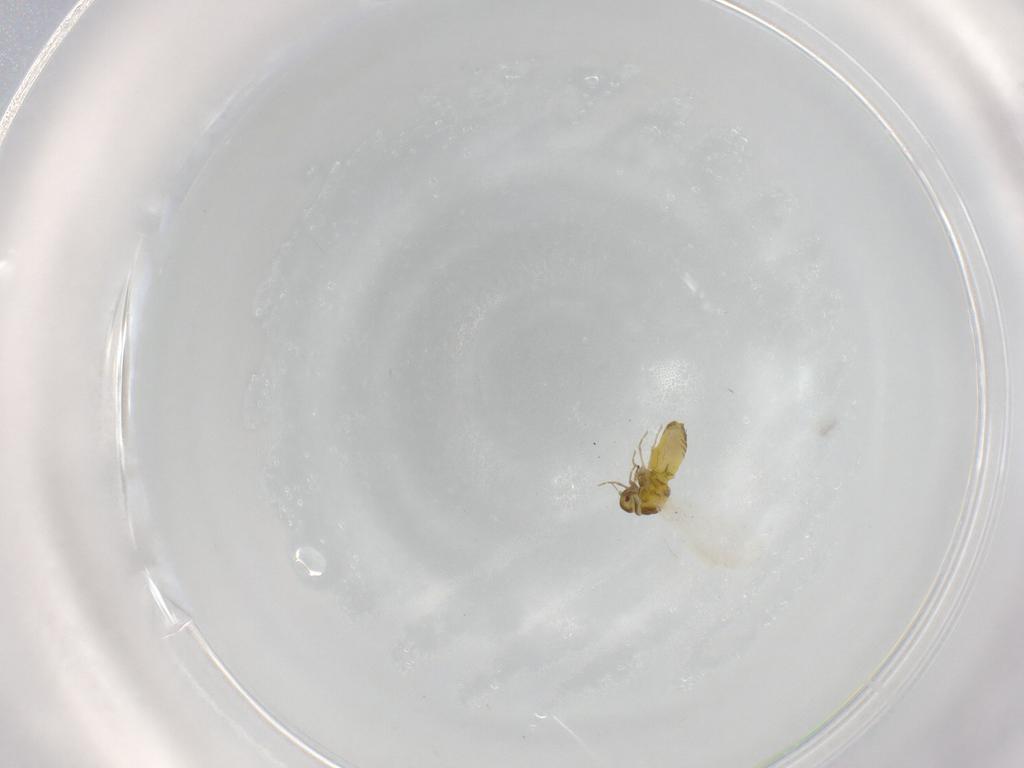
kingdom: Animalia
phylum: Arthropoda
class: Insecta
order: Hemiptera
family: Aleyrodidae
